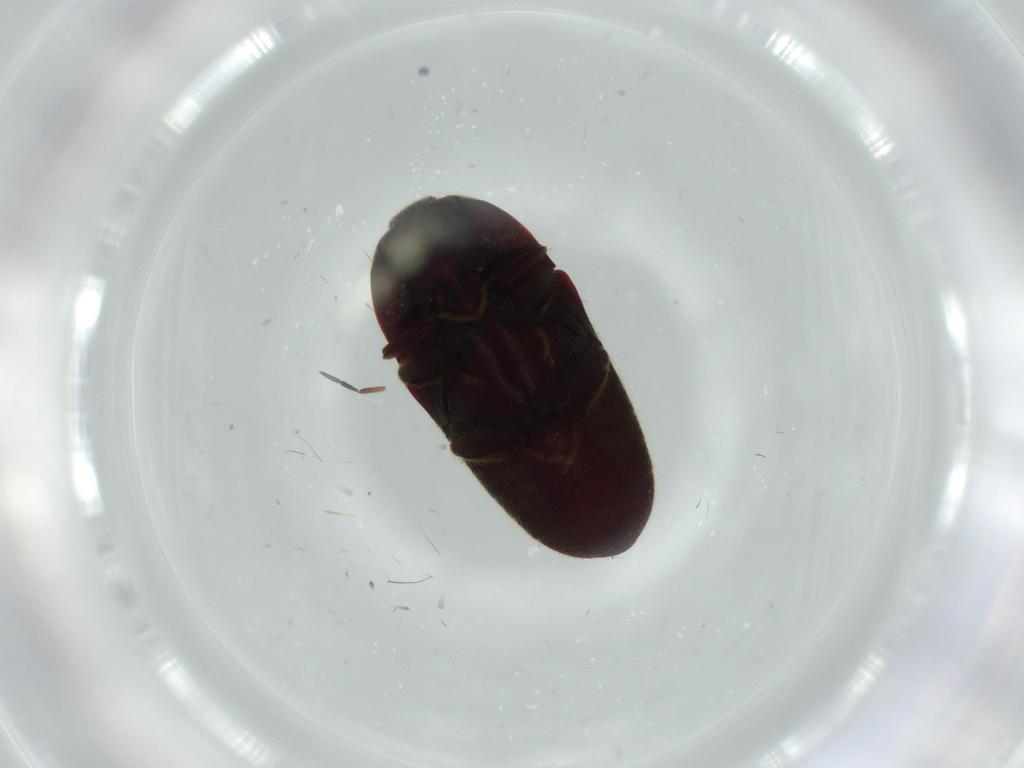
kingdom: Animalia
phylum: Arthropoda
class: Insecta
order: Coleoptera
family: Throscidae
